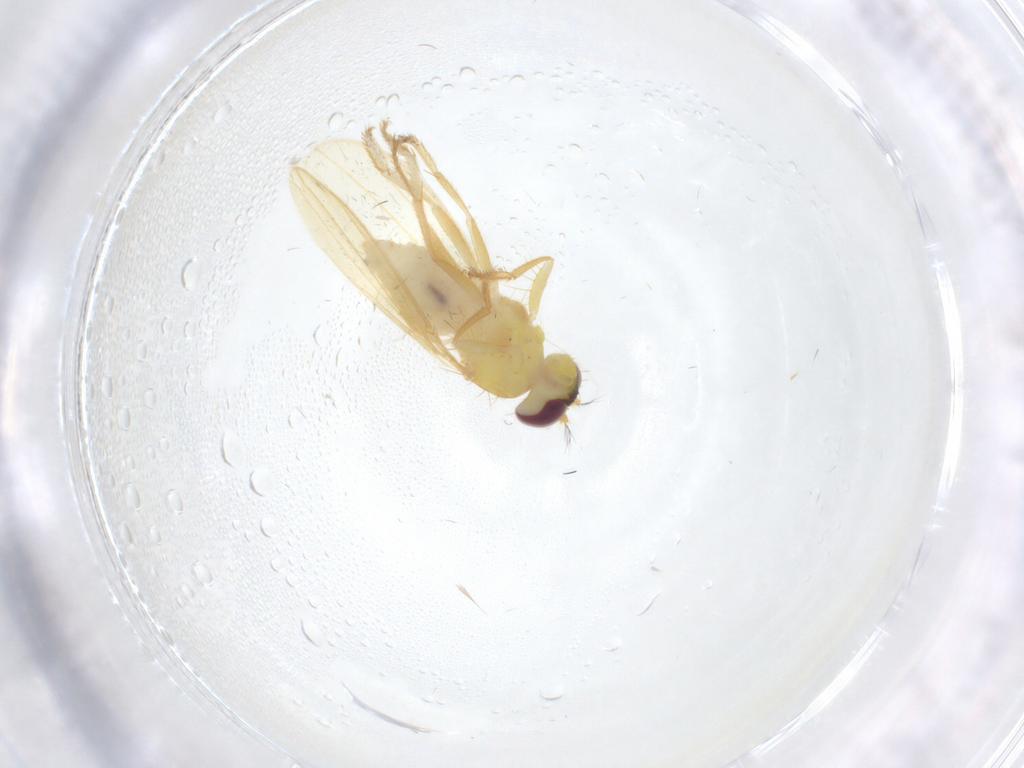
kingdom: Animalia
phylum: Arthropoda
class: Insecta
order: Diptera
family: Periscelididae
